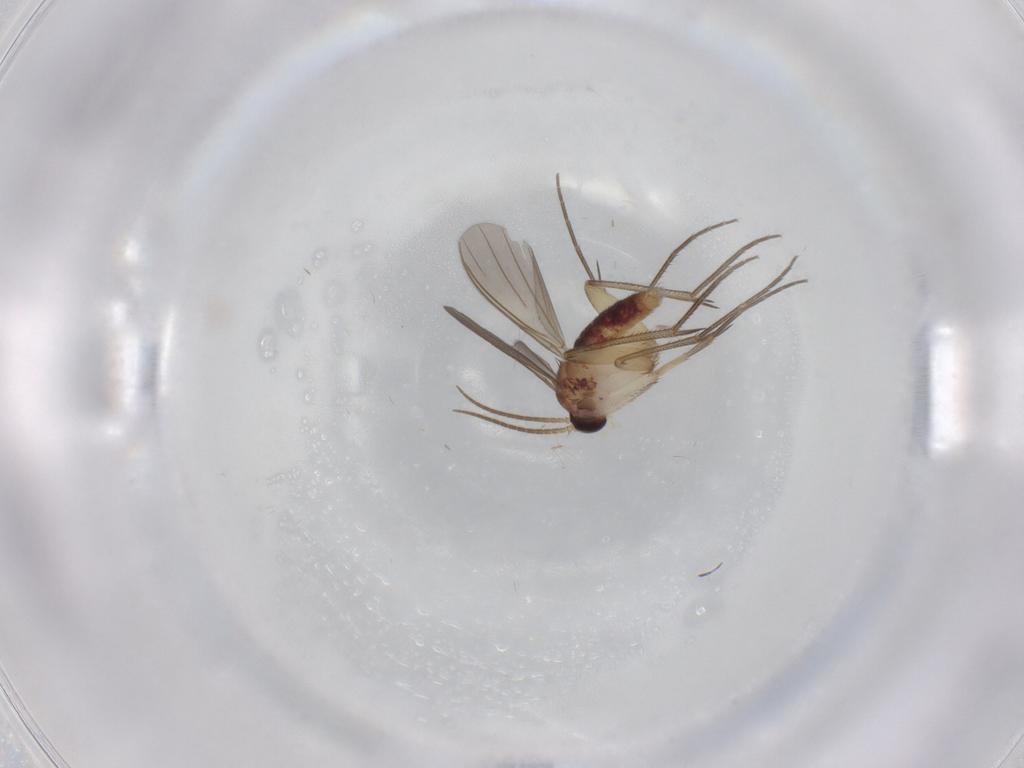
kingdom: Animalia
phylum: Arthropoda
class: Insecta
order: Diptera
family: Mycetophilidae
